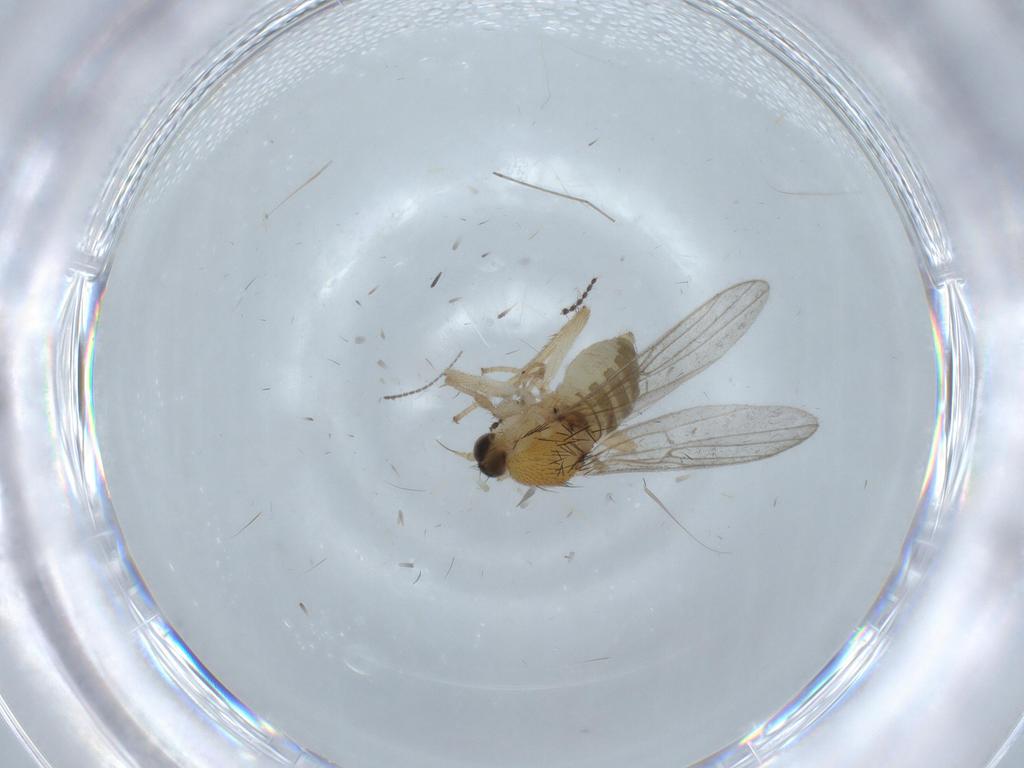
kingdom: Animalia
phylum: Arthropoda
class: Insecta
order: Diptera
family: Hybotidae
